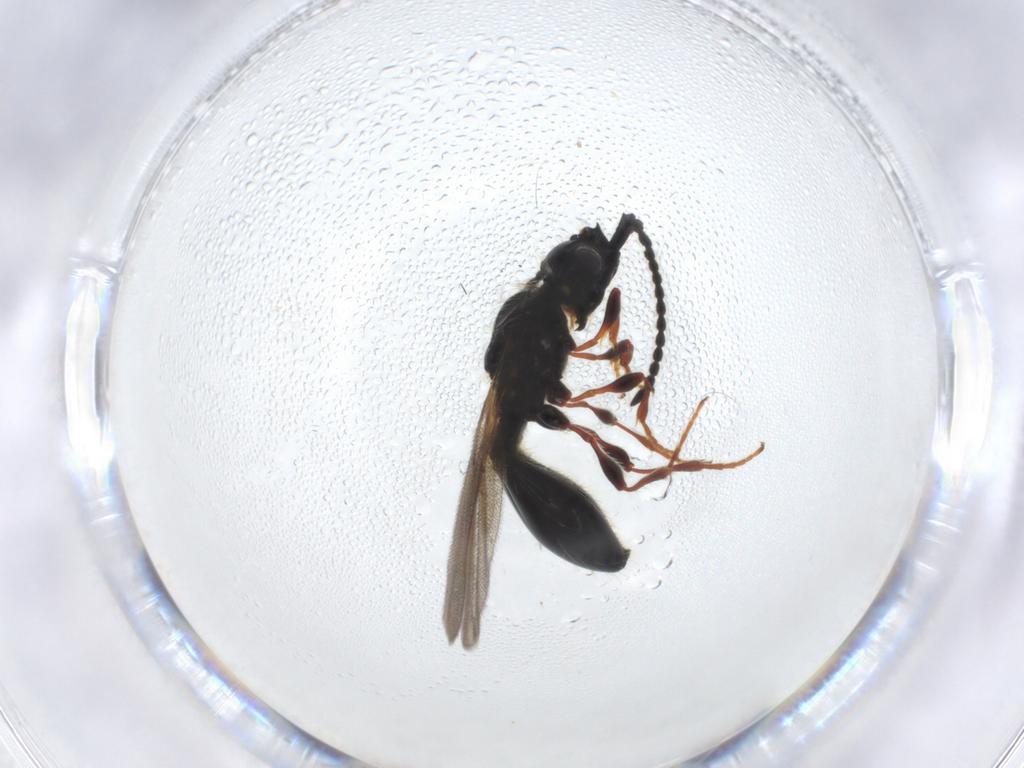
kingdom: Animalia
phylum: Arthropoda
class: Insecta
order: Hymenoptera
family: Diapriidae
